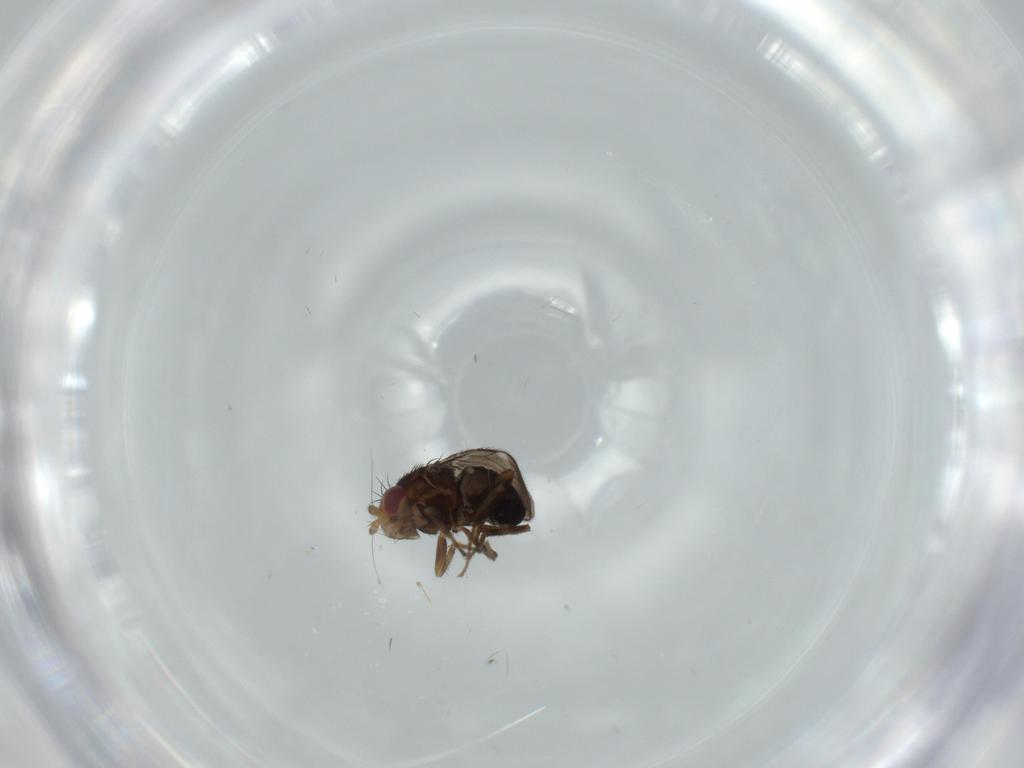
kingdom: Animalia
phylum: Arthropoda
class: Insecta
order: Diptera
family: Sphaeroceridae
